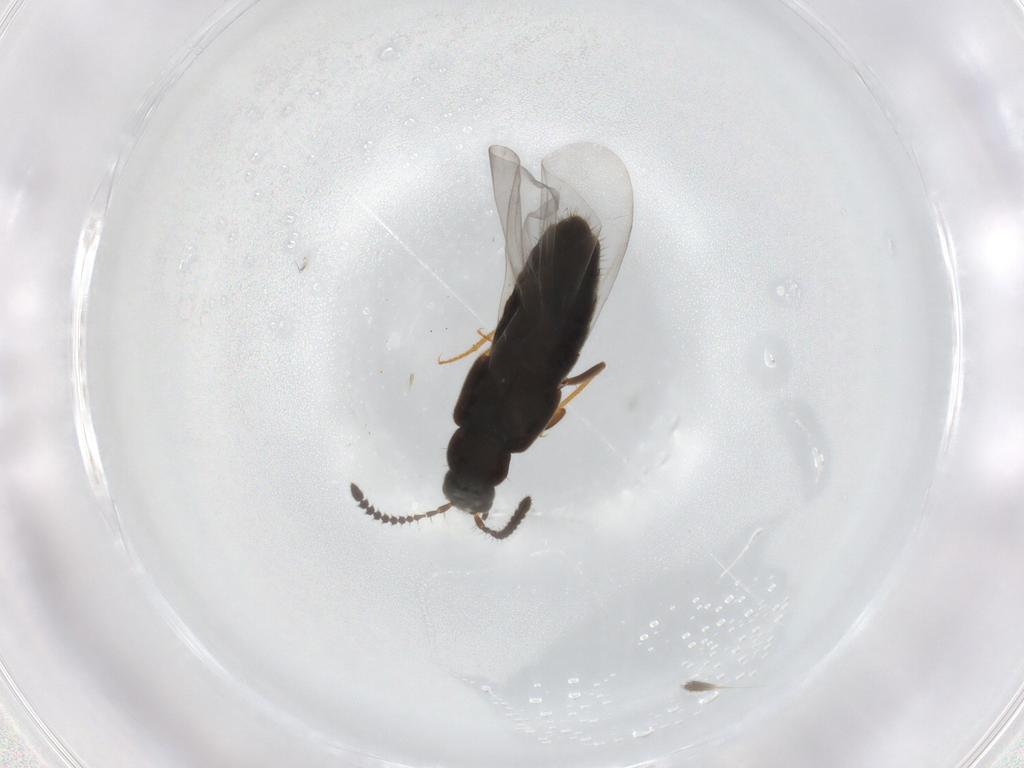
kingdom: Animalia
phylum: Arthropoda
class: Insecta
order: Coleoptera
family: Staphylinidae
